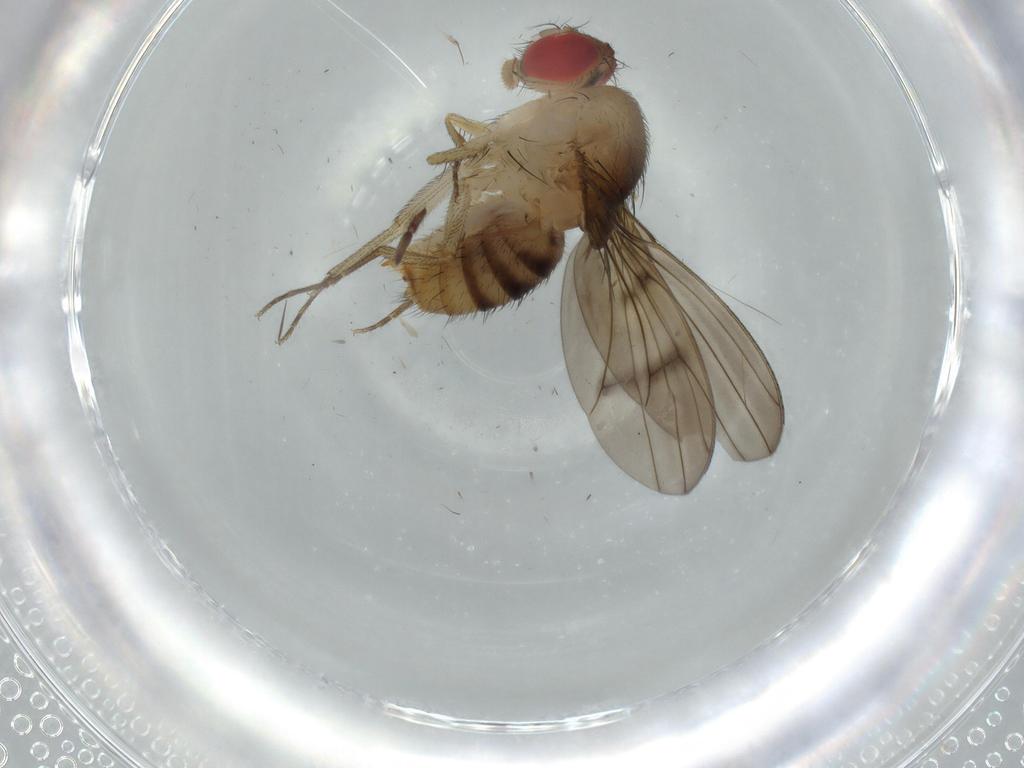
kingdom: Animalia
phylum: Arthropoda
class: Insecta
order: Diptera
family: Drosophilidae
